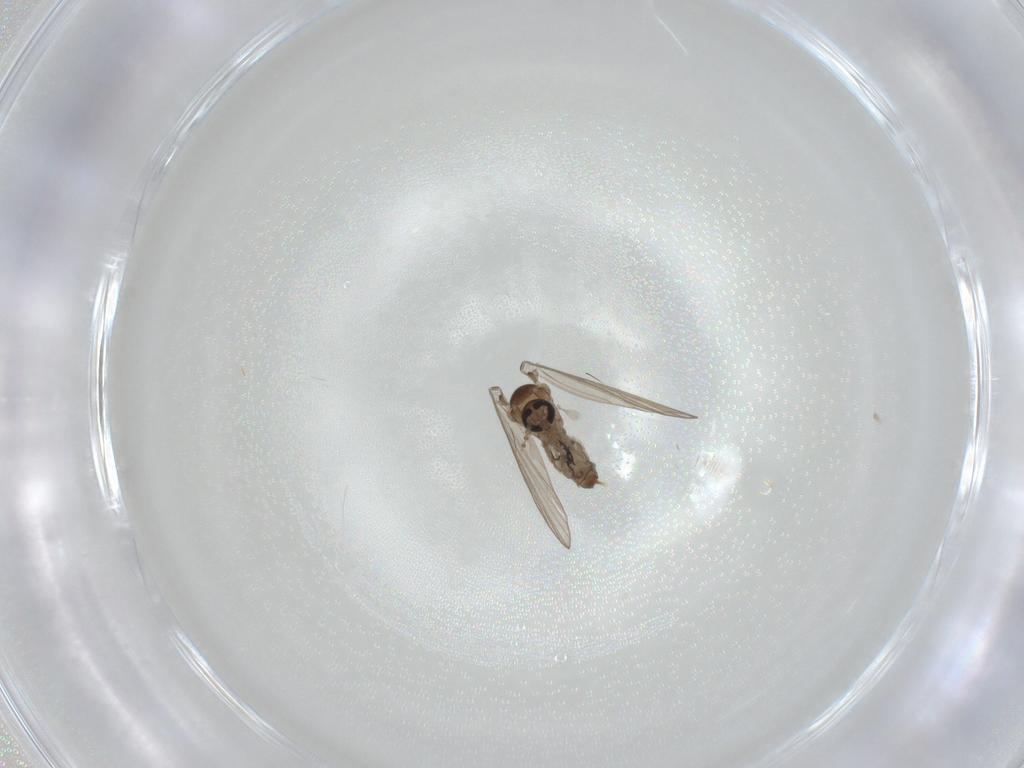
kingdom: Animalia
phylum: Arthropoda
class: Insecta
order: Diptera
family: Psychodidae
